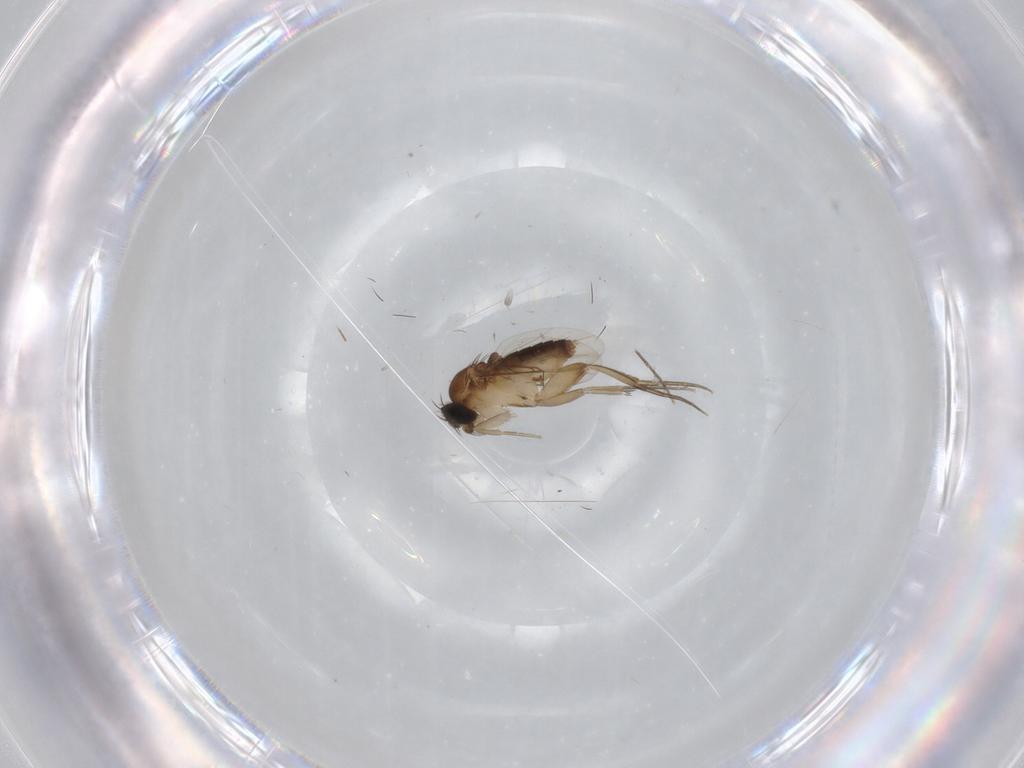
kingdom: Animalia
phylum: Arthropoda
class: Insecta
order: Diptera
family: Phoridae
